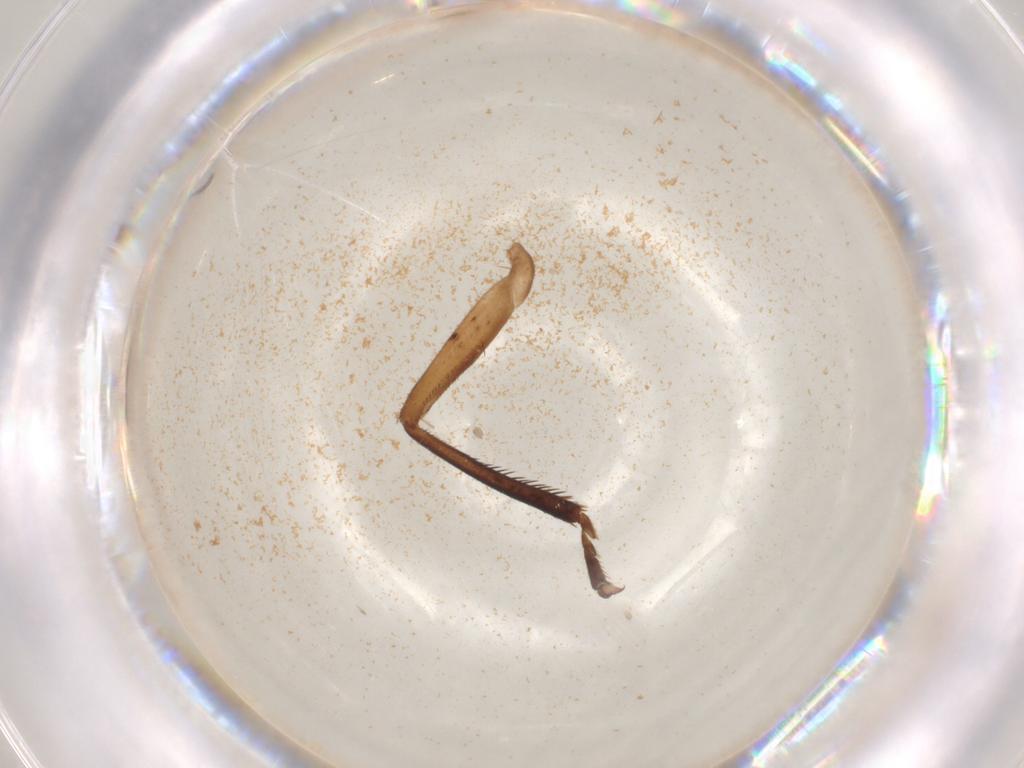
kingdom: Animalia
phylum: Arthropoda
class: Insecta
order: Hemiptera
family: Cicadellidae
